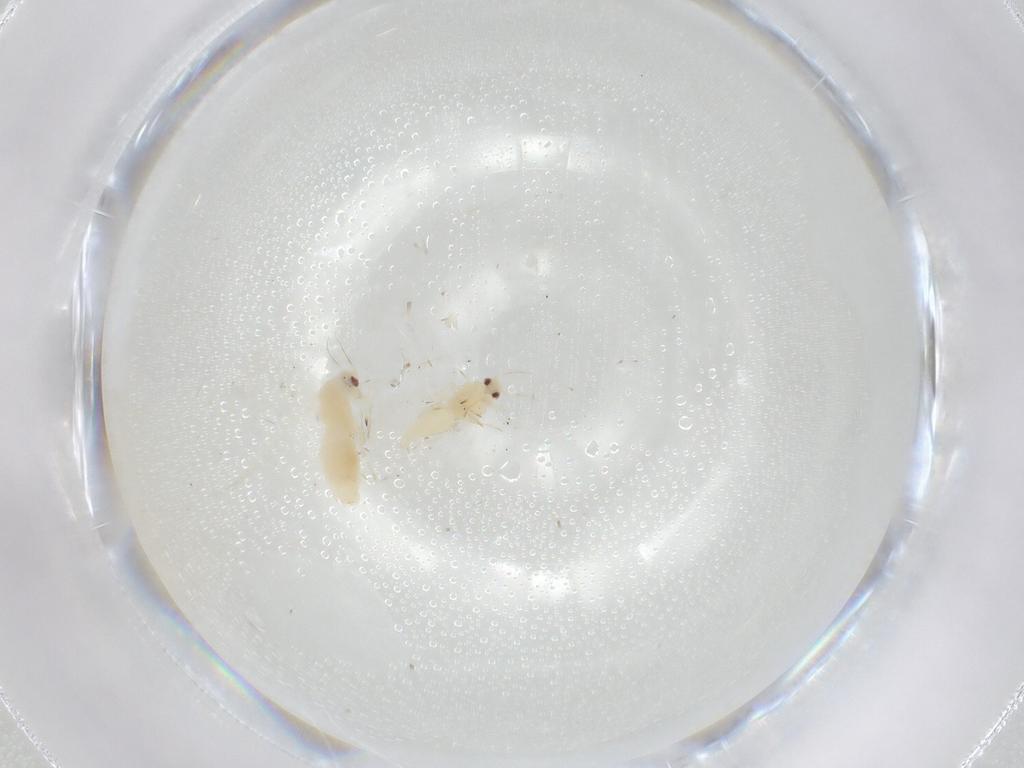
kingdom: Animalia
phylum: Arthropoda
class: Insecta
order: Hemiptera
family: Aleyrodidae
